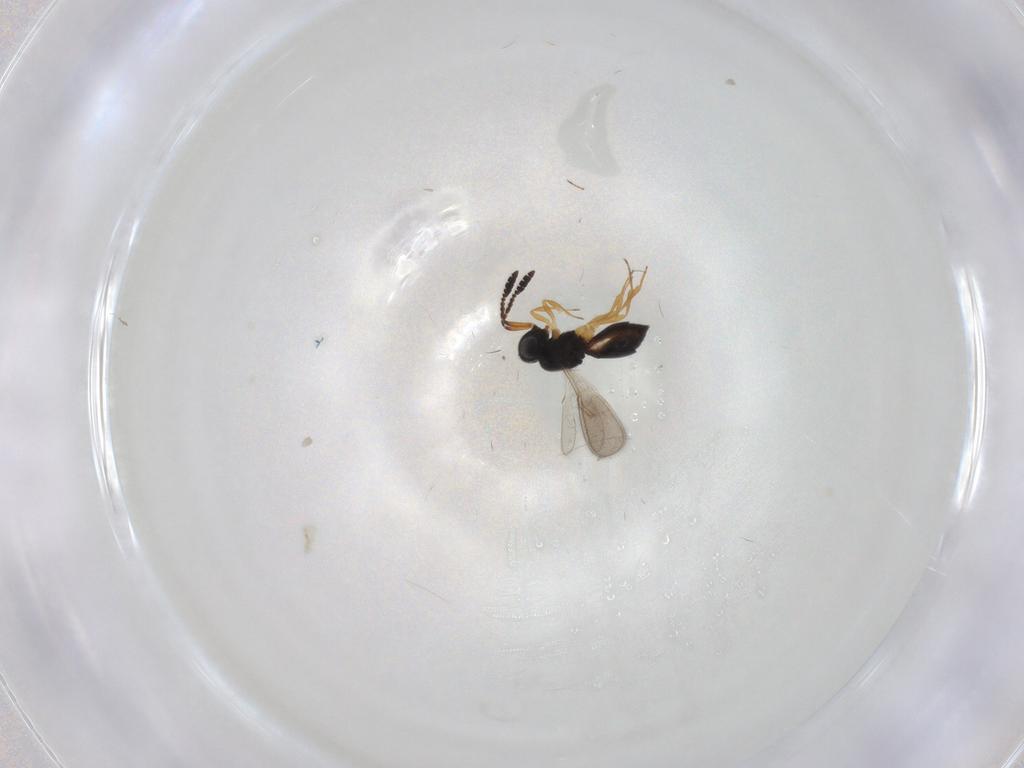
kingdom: Animalia
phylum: Arthropoda
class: Insecta
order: Hymenoptera
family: Scelionidae
